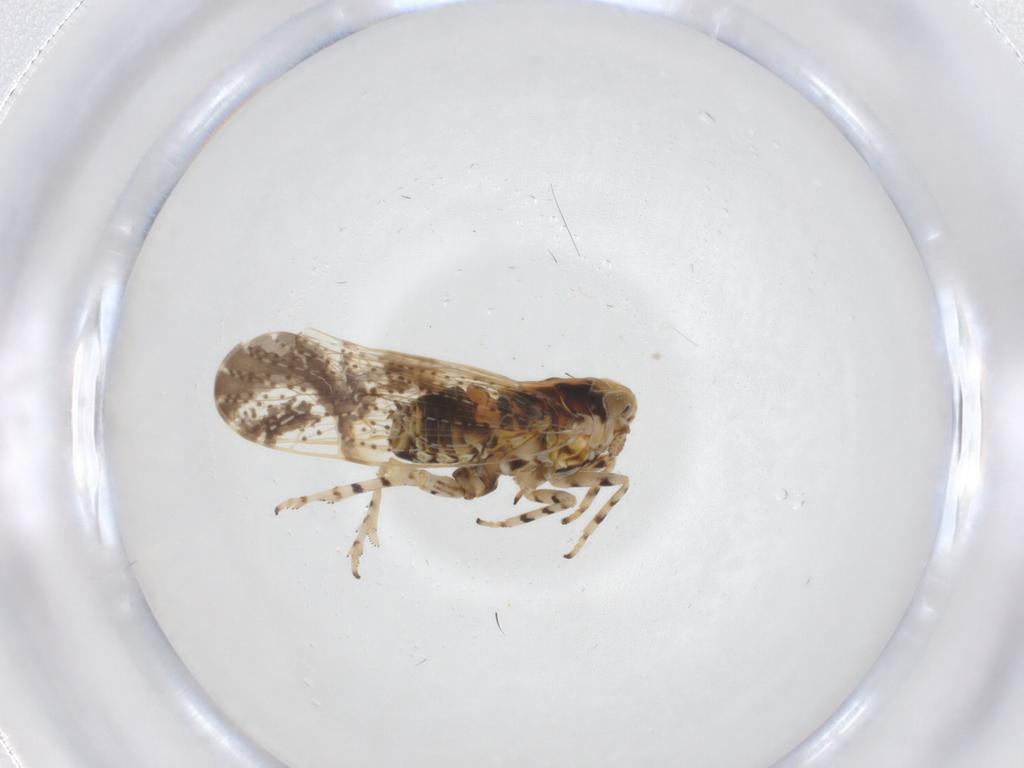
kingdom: Animalia
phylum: Arthropoda
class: Insecta
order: Hemiptera
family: Delphacidae
